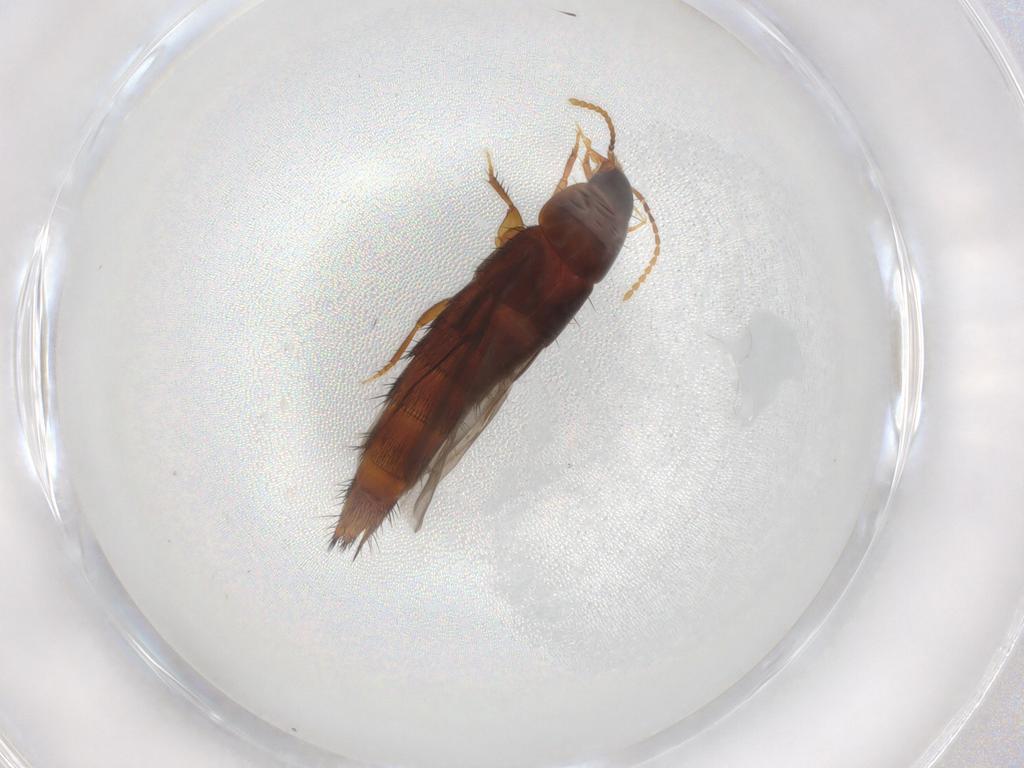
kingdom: Animalia
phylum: Arthropoda
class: Insecta
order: Coleoptera
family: Staphylinidae
